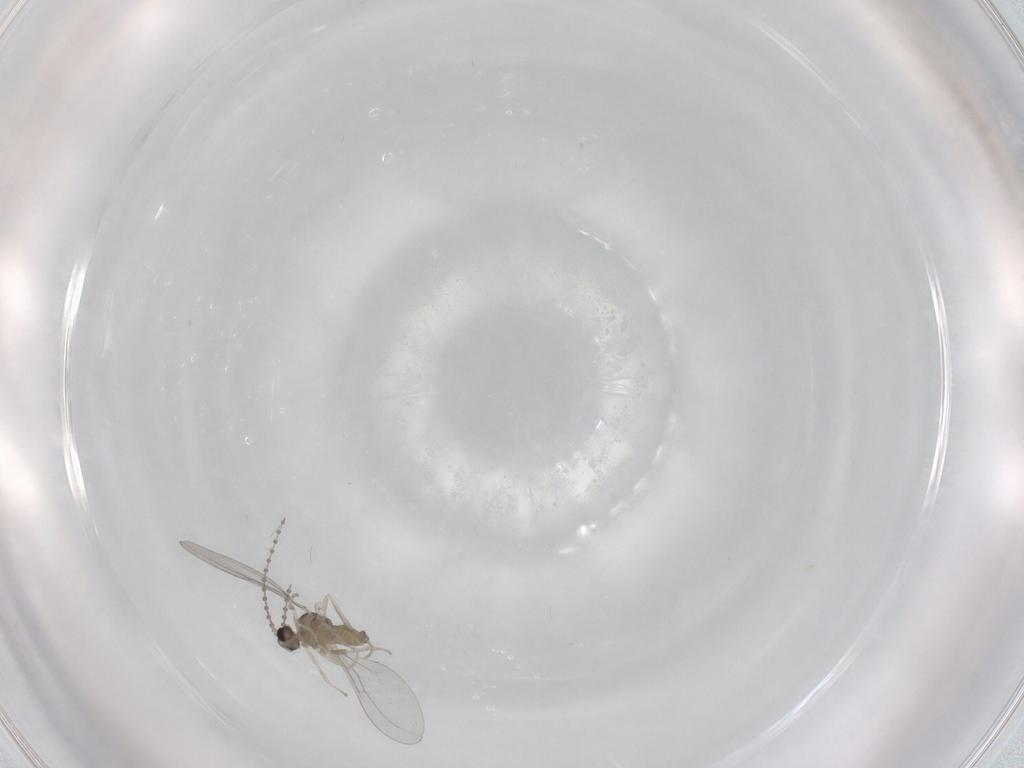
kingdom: Animalia
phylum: Arthropoda
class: Insecta
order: Diptera
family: Cecidomyiidae
